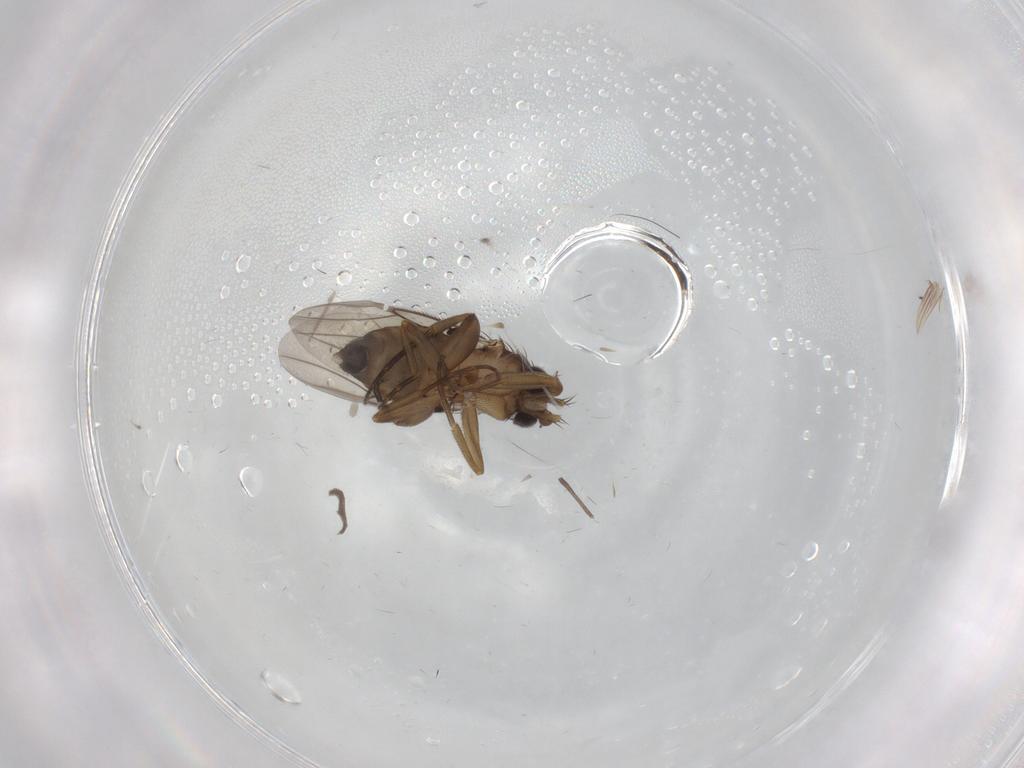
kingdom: Animalia
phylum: Arthropoda
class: Insecta
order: Diptera
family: Phoridae
